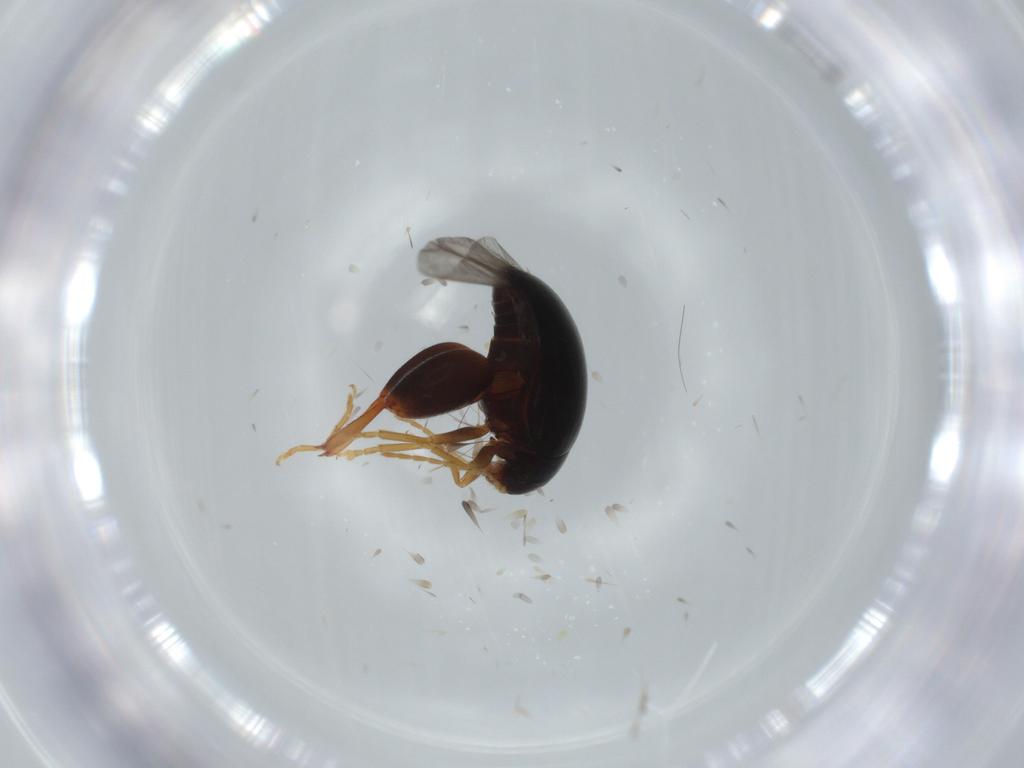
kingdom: Animalia
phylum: Arthropoda
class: Insecta
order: Coleoptera
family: Chrysomelidae
